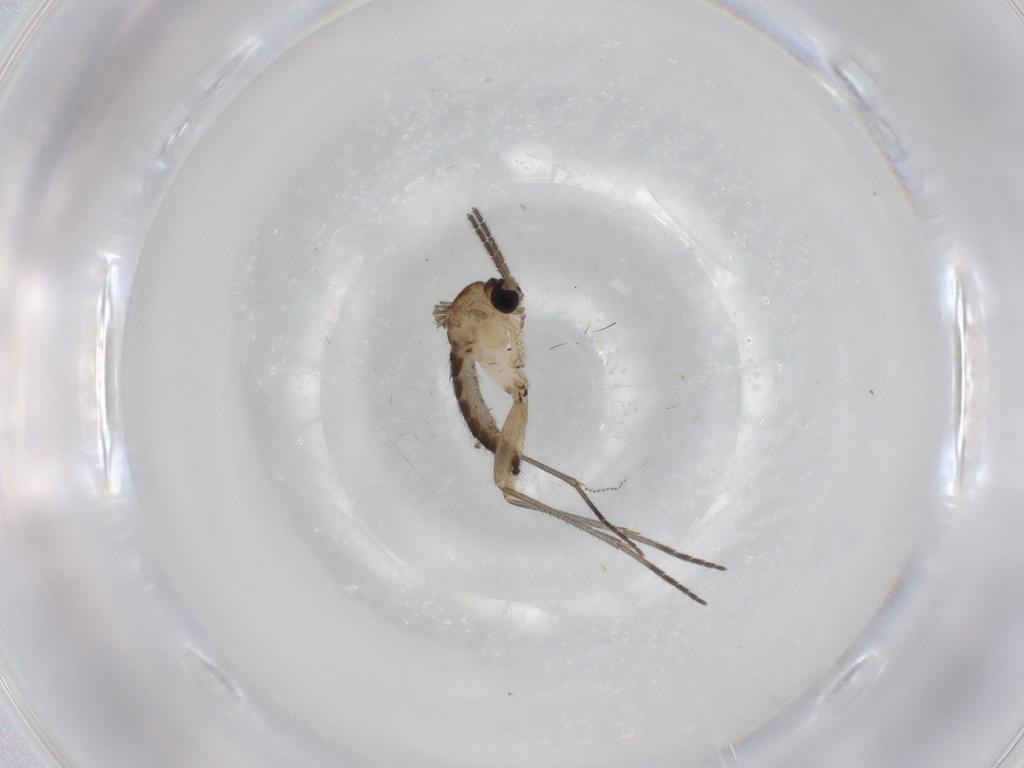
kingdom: Animalia
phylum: Arthropoda
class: Insecta
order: Diptera
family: Sciaridae
